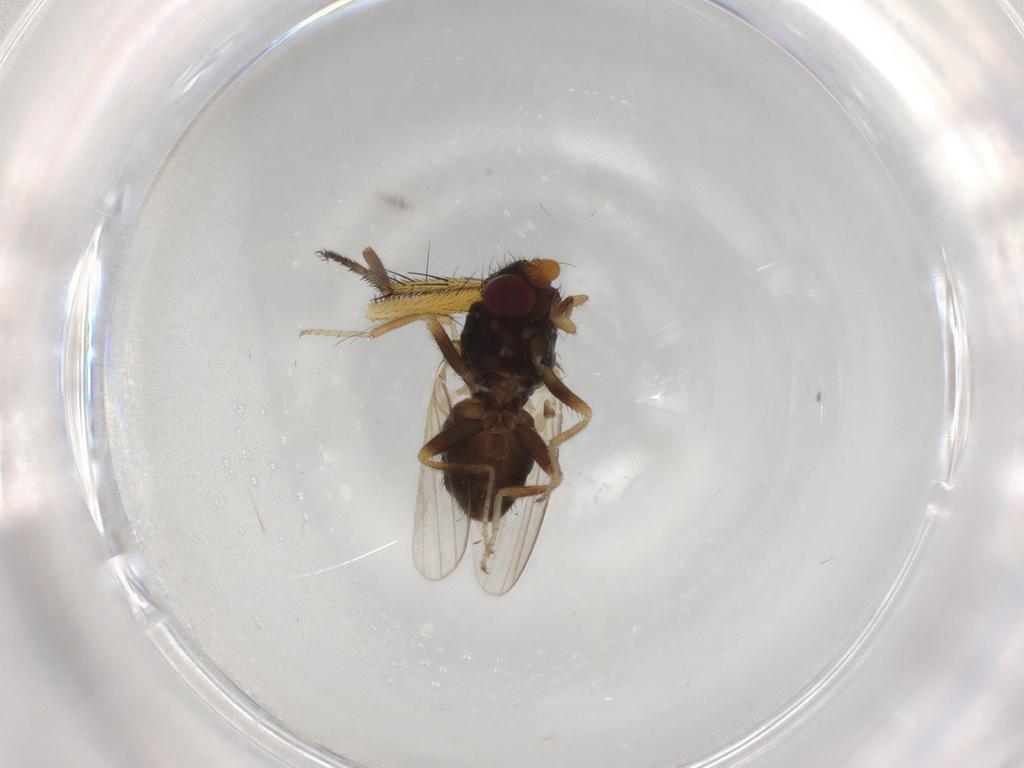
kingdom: Animalia
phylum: Arthropoda
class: Insecta
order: Diptera
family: Milichiidae
